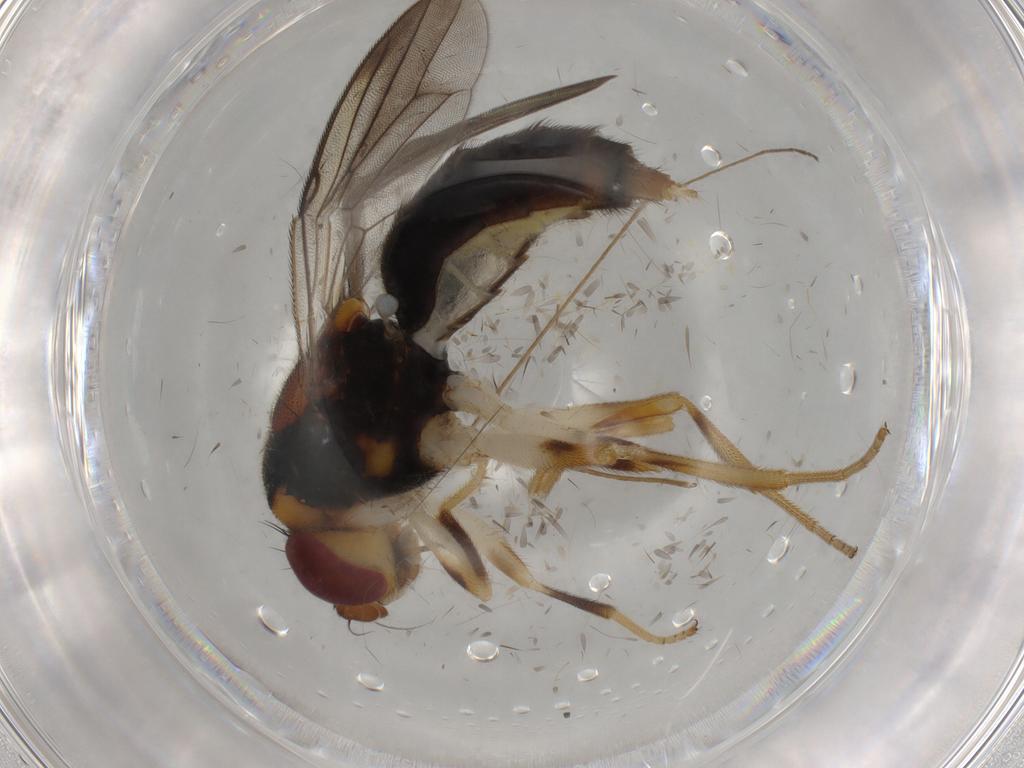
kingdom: Animalia
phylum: Arthropoda
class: Insecta
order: Diptera
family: Psilidae
